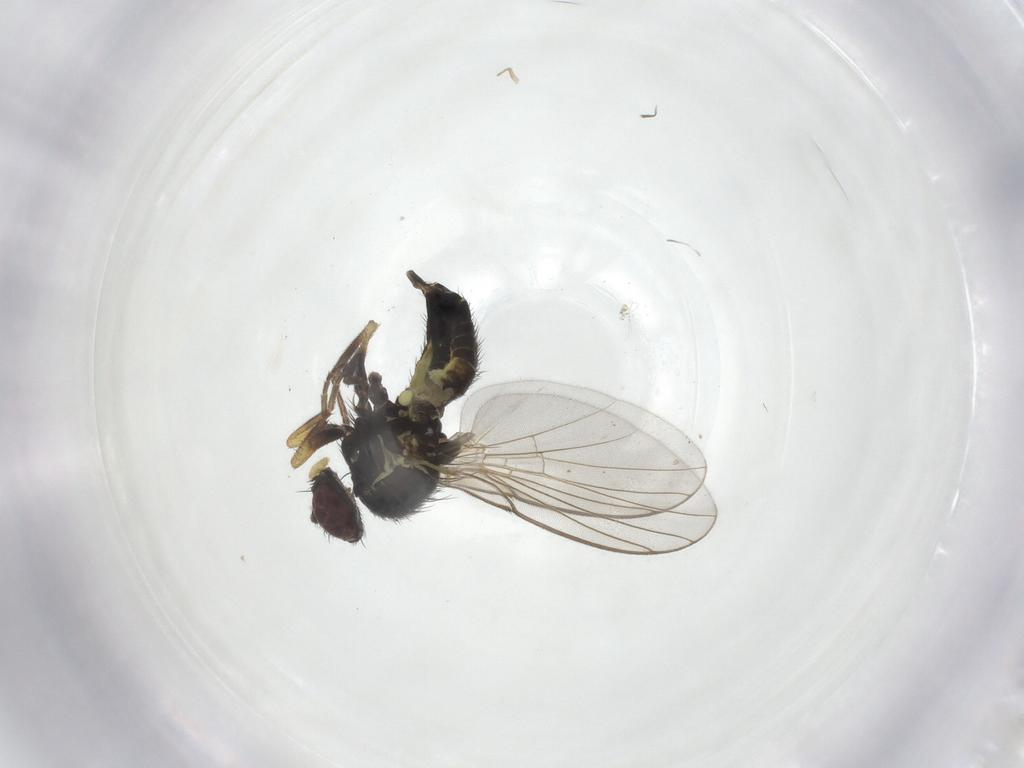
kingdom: Animalia
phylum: Arthropoda
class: Insecta
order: Diptera
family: Agromyzidae
